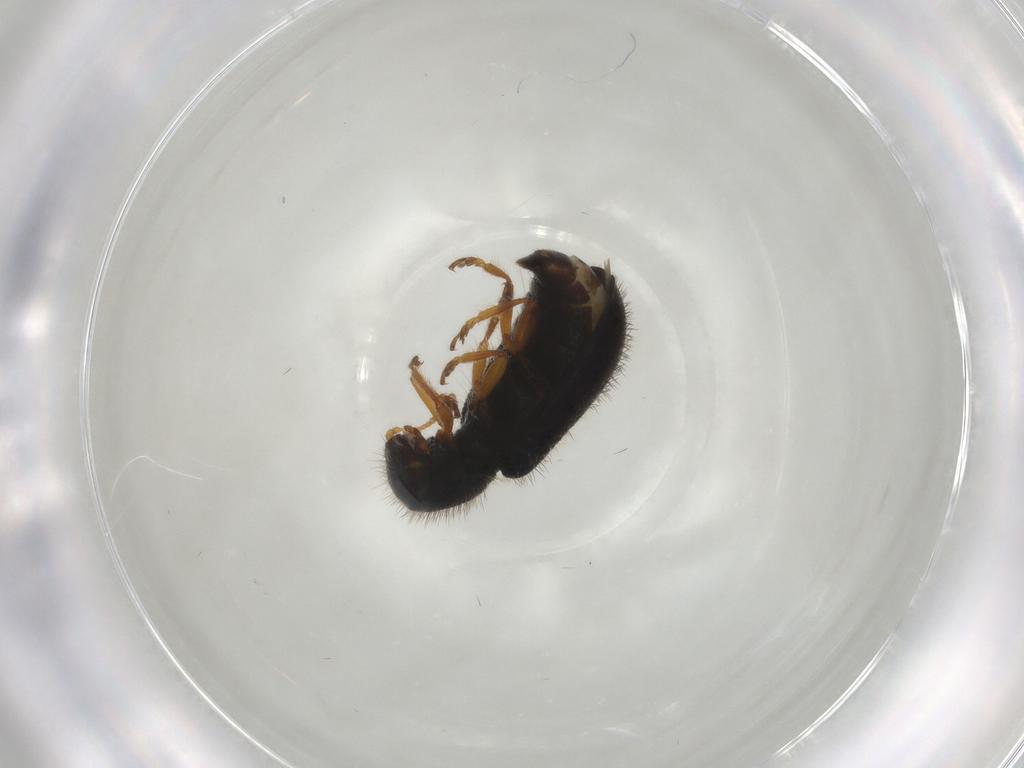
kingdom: Animalia
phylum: Arthropoda
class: Insecta
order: Coleoptera
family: Cleridae
